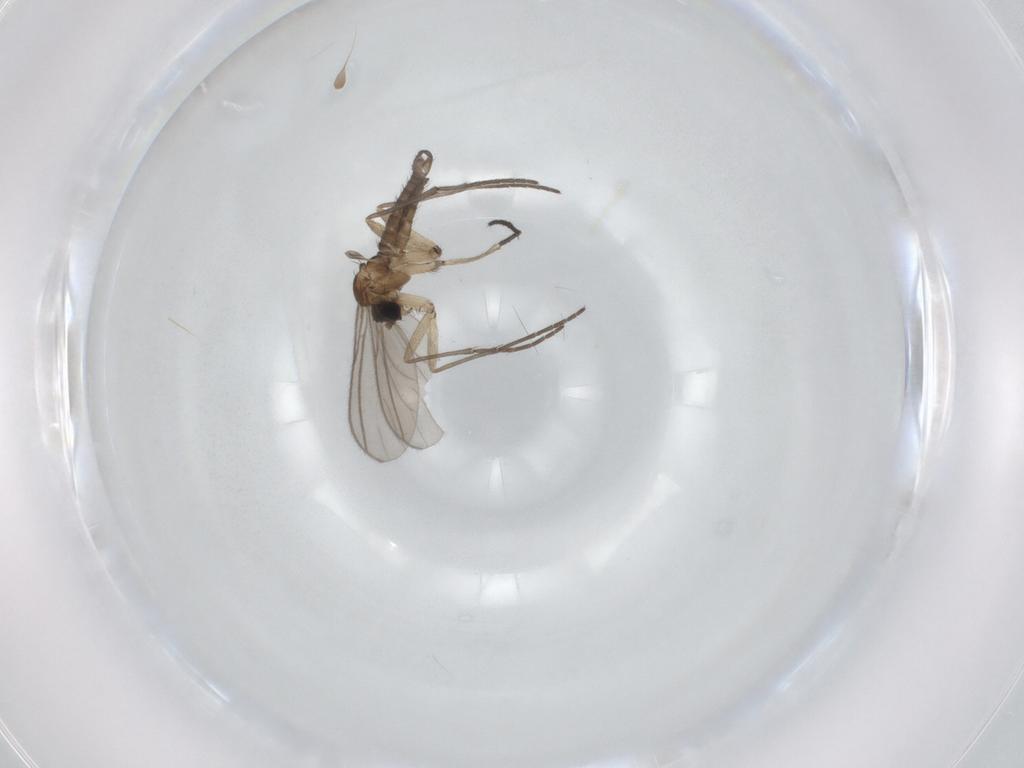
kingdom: Animalia
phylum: Arthropoda
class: Insecta
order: Diptera
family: Sciaridae
